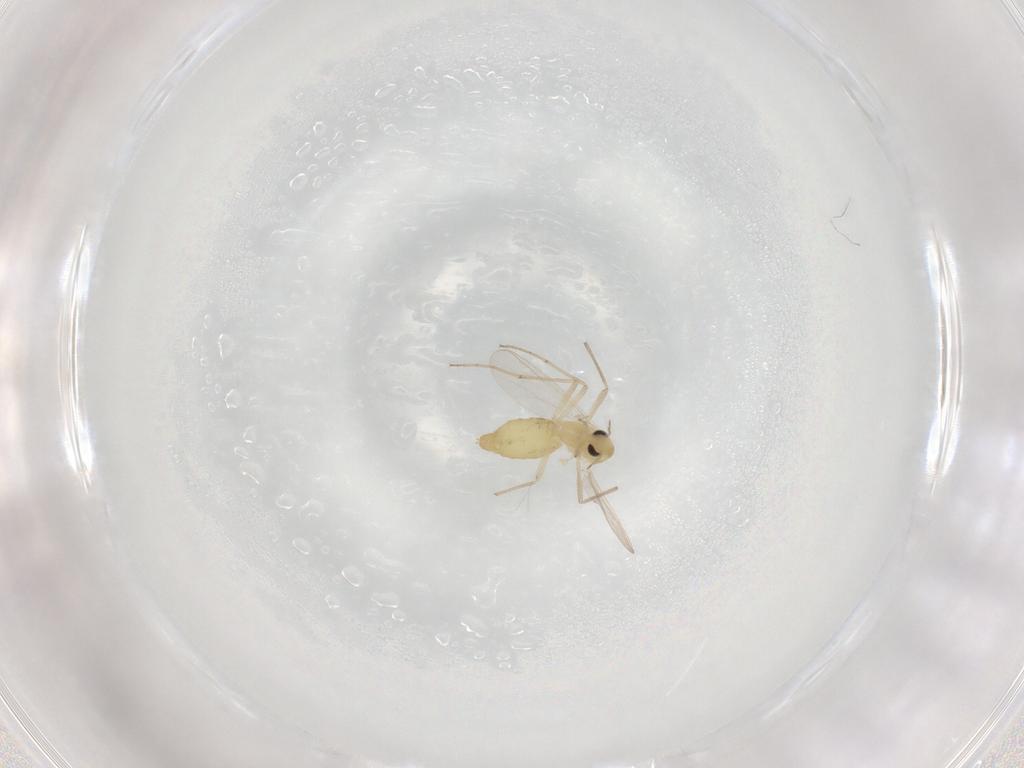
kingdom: Animalia
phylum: Arthropoda
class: Insecta
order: Diptera
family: Chironomidae
